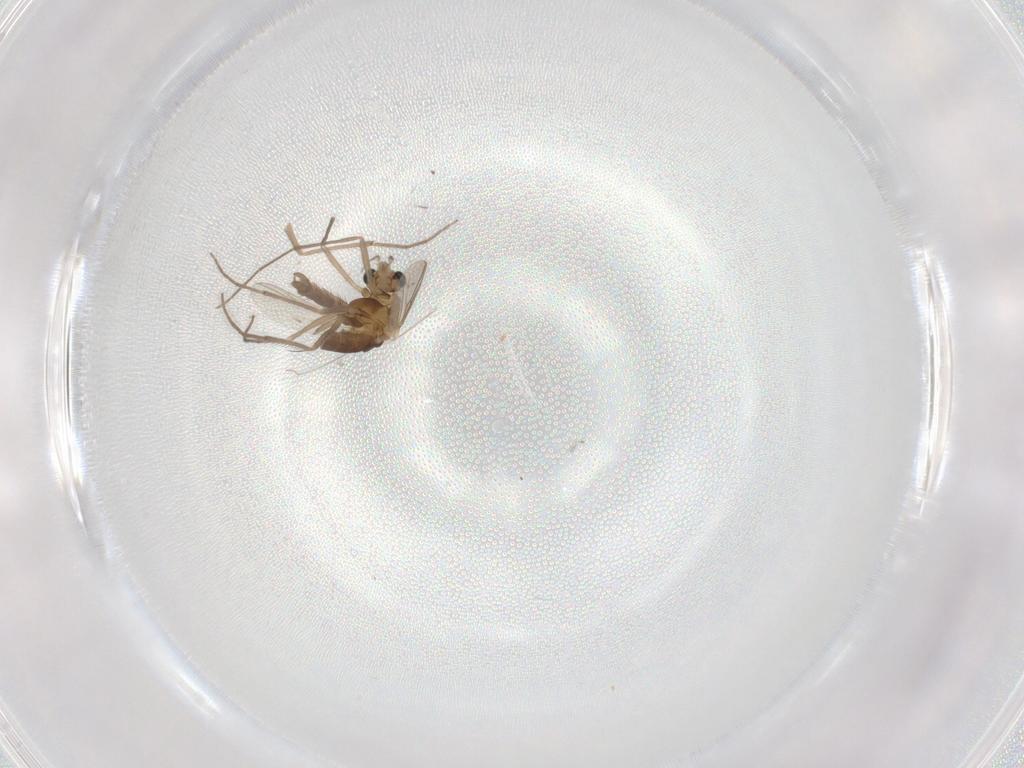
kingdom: Animalia
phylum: Arthropoda
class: Insecta
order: Diptera
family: Chironomidae
